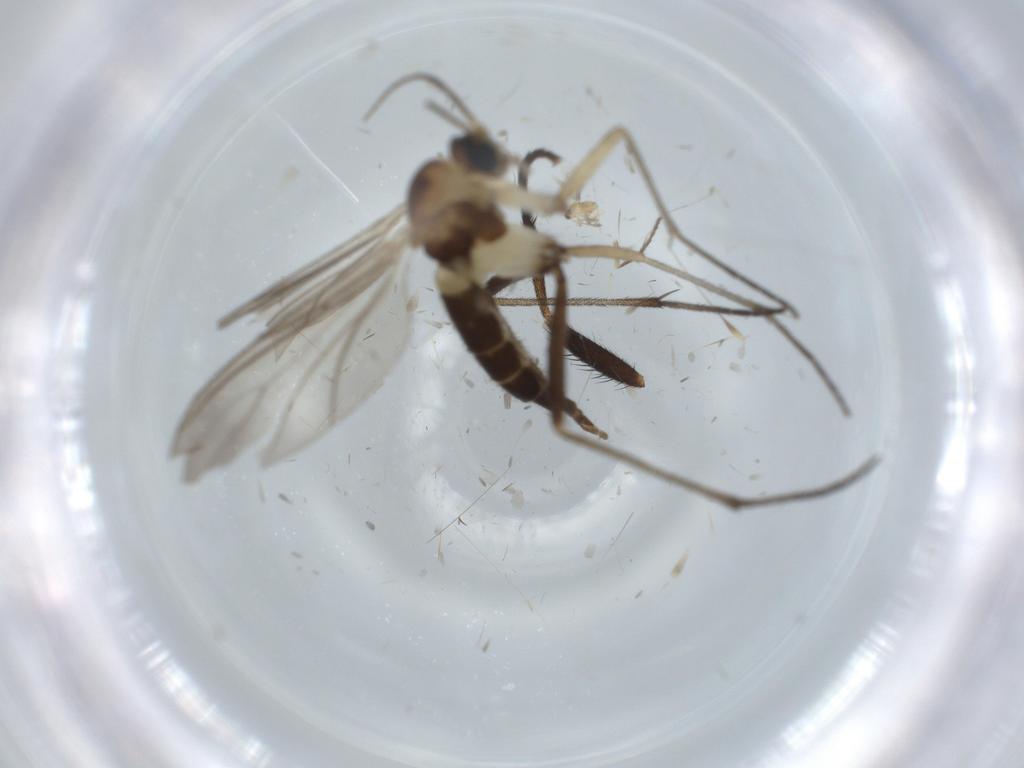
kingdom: Animalia
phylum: Arthropoda
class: Insecta
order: Diptera
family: Sciaridae
